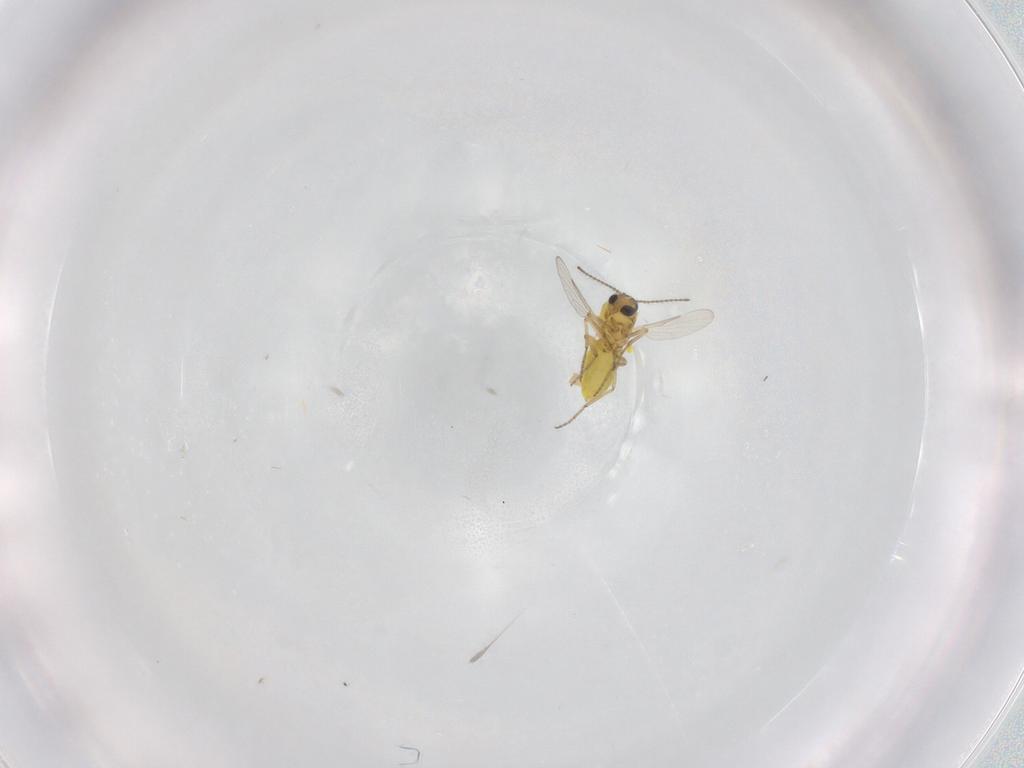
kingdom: Animalia
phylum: Arthropoda
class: Insecta
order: Diptera
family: Ceratopogonidae
